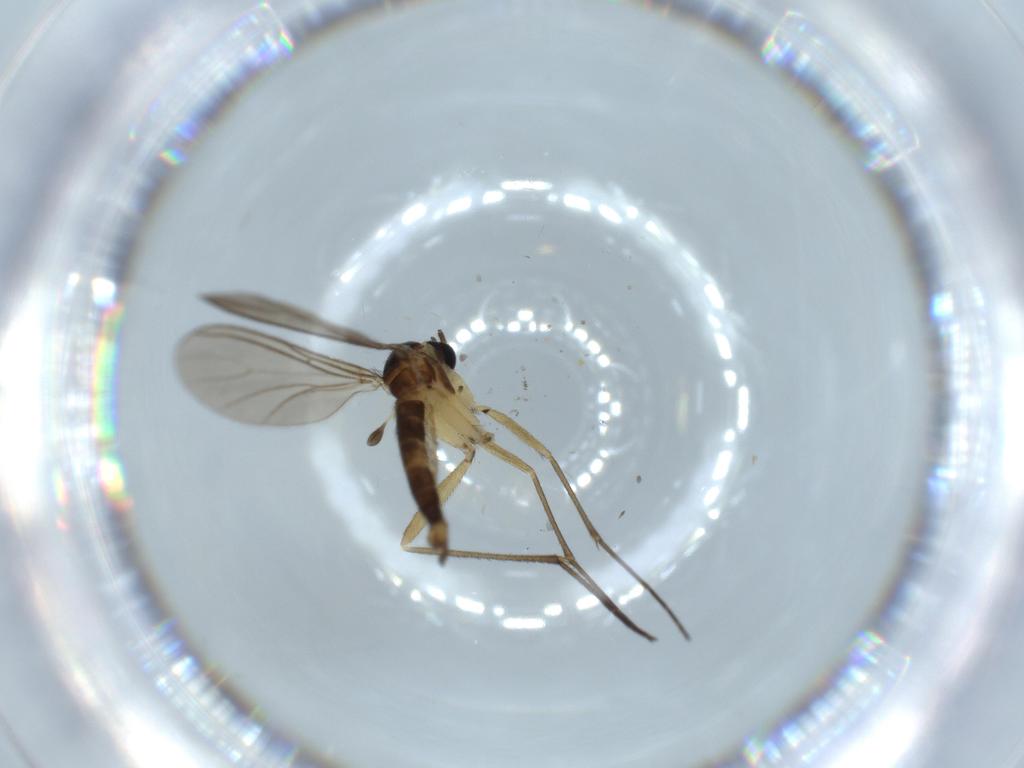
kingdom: Animalia
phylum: Arthropoda
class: Insecta
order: Diptera
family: Sciaridae
